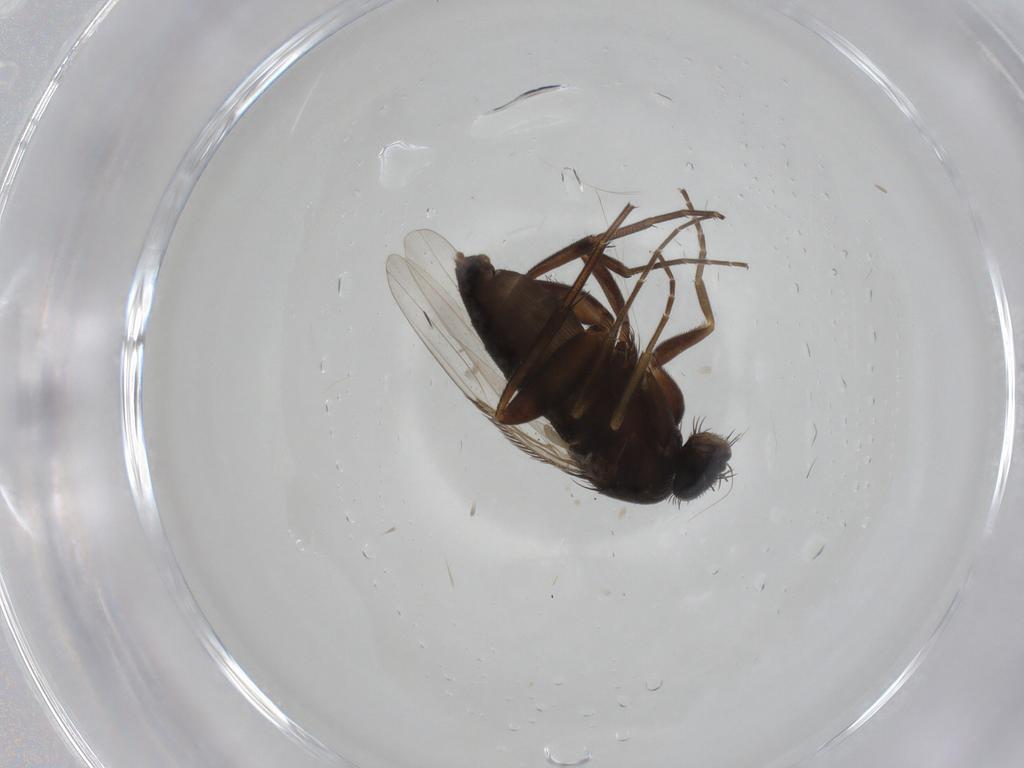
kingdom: Animalia
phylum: Arthropoda
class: Insecta
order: Diptera
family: Phoridae
